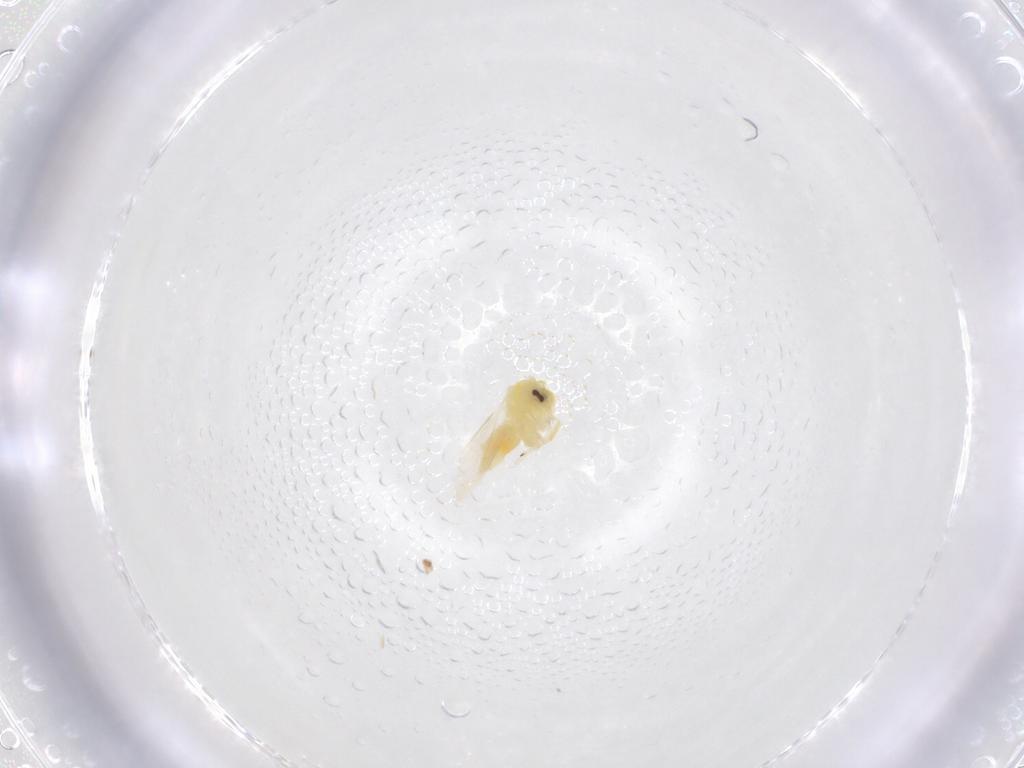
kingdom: Animalia
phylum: Arthropoda
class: Insecta
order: Hemiptera
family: Aleyrodidae
